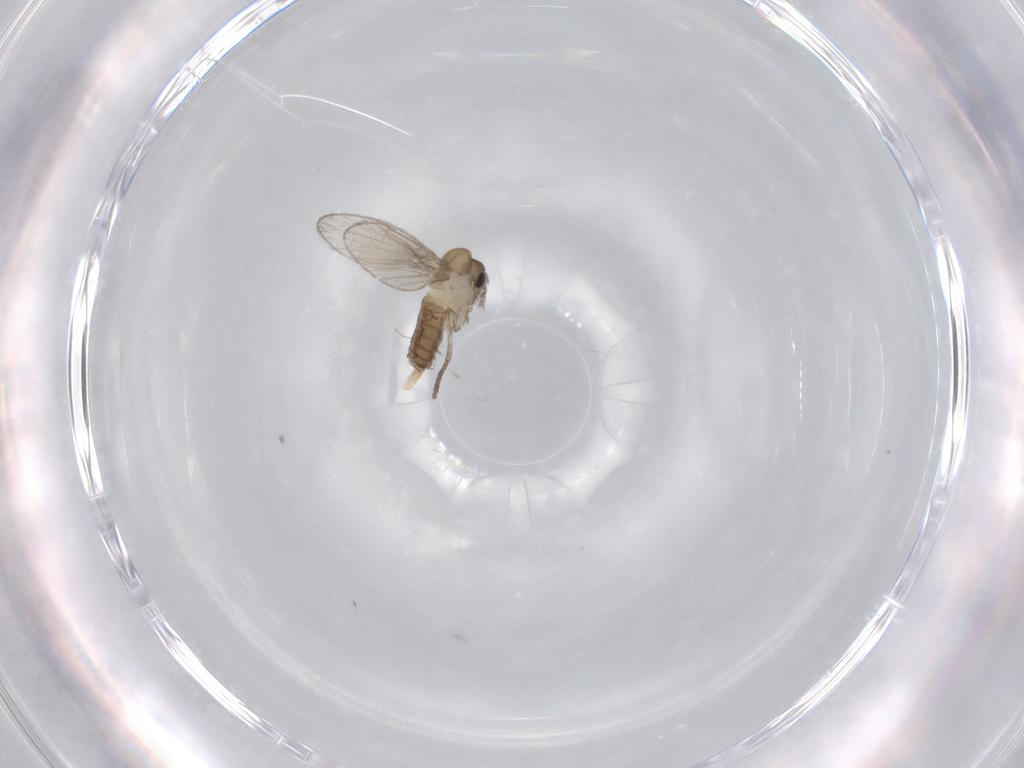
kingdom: Animalia
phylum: Arthropoda
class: Insecta
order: Diptera
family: Psychodidae
